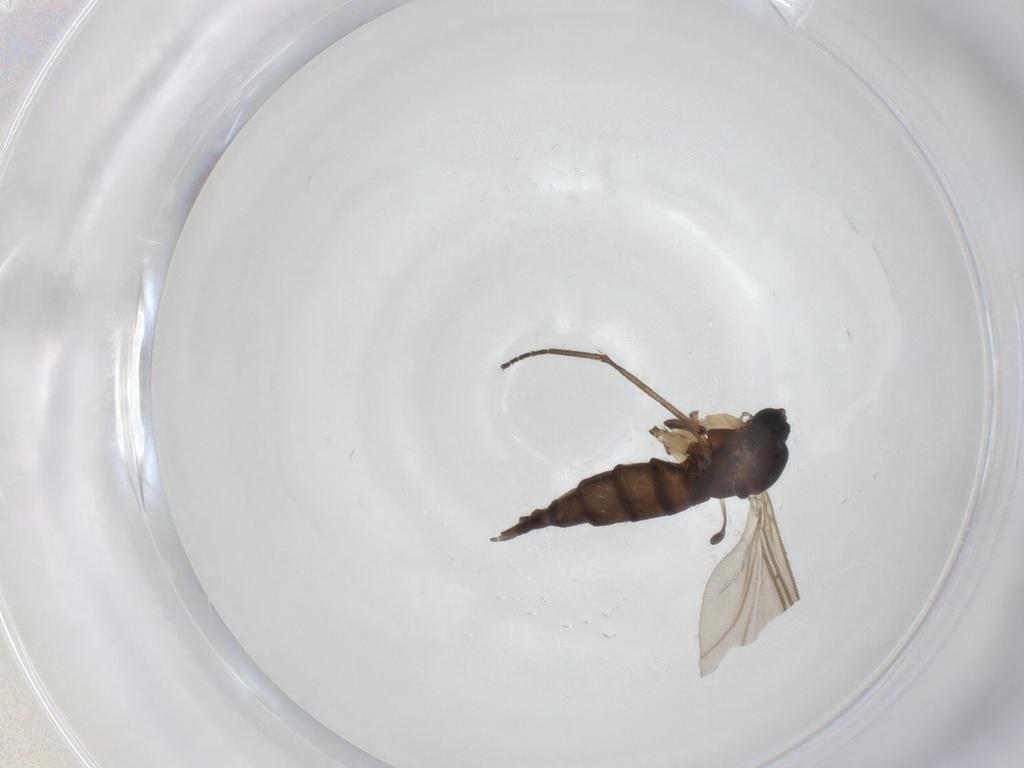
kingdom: Animalia
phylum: Arthropoda
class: Insecta
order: Diptera
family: Sciaridae
